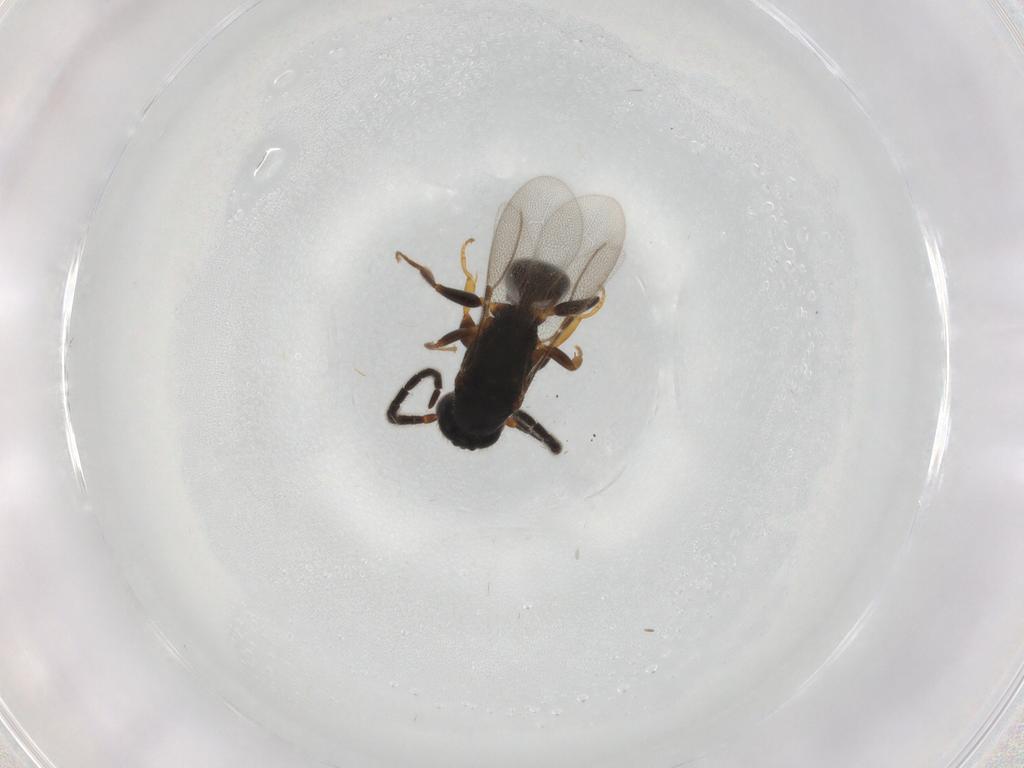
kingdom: Animalia
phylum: Arthropoda
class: Insecta
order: Hymenoptera
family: Bethylidae
